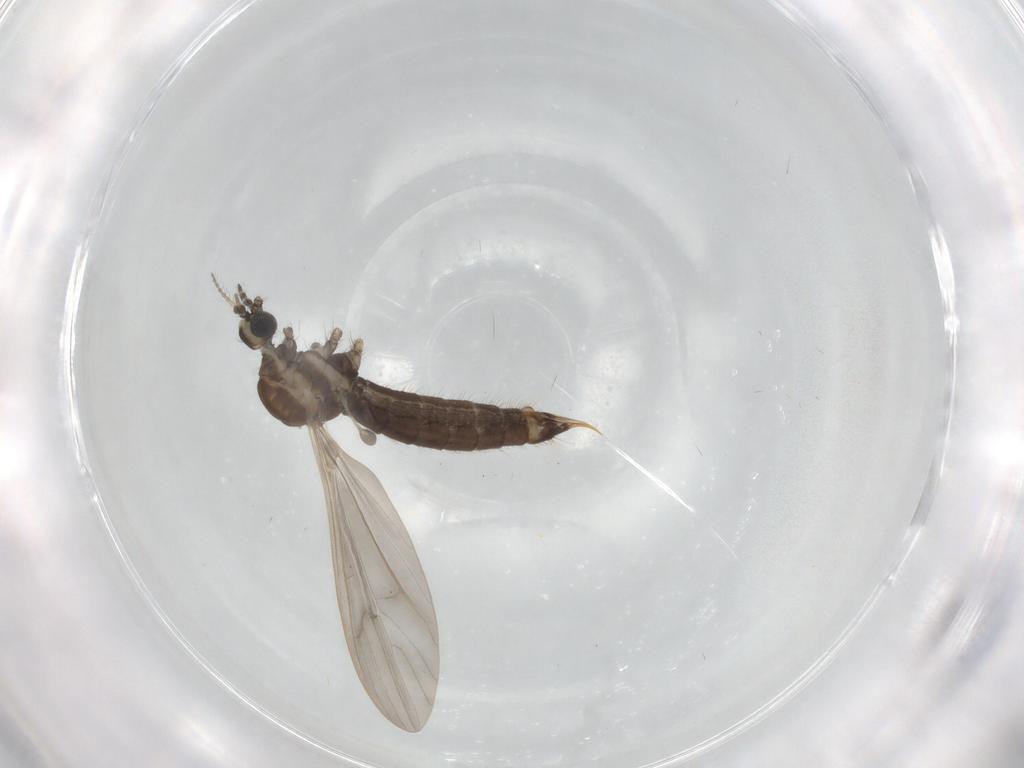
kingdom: Animalia
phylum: Arthropoda
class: Insecta
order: Diptera
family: Limoniidae
